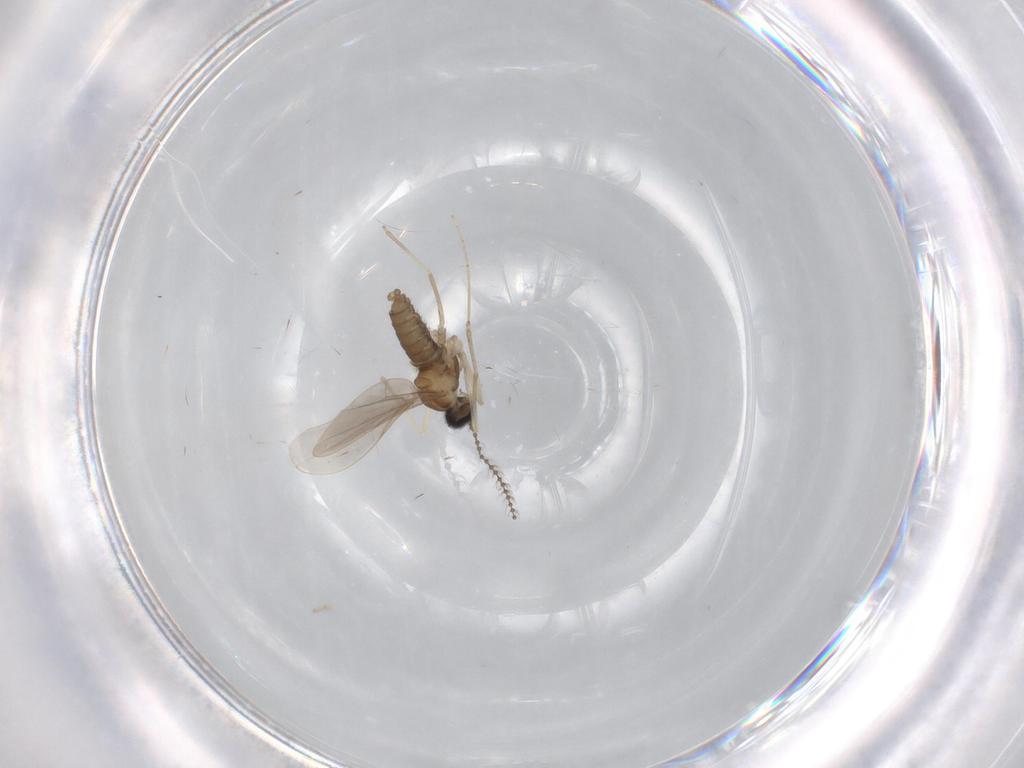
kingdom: Animalia
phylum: Arthropoda
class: Insecta
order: Diptera
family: Cecidomyiidae
